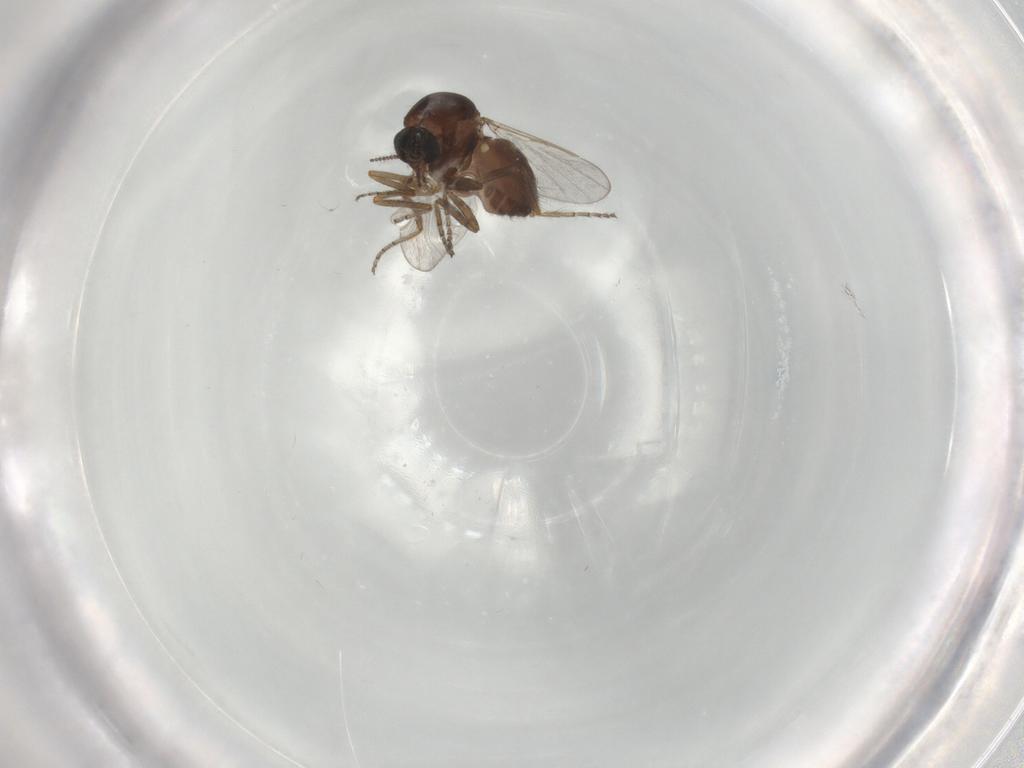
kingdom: Animalia
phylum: Arthropoda
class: Insecta
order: Diptera
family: Ceratopogonidae
